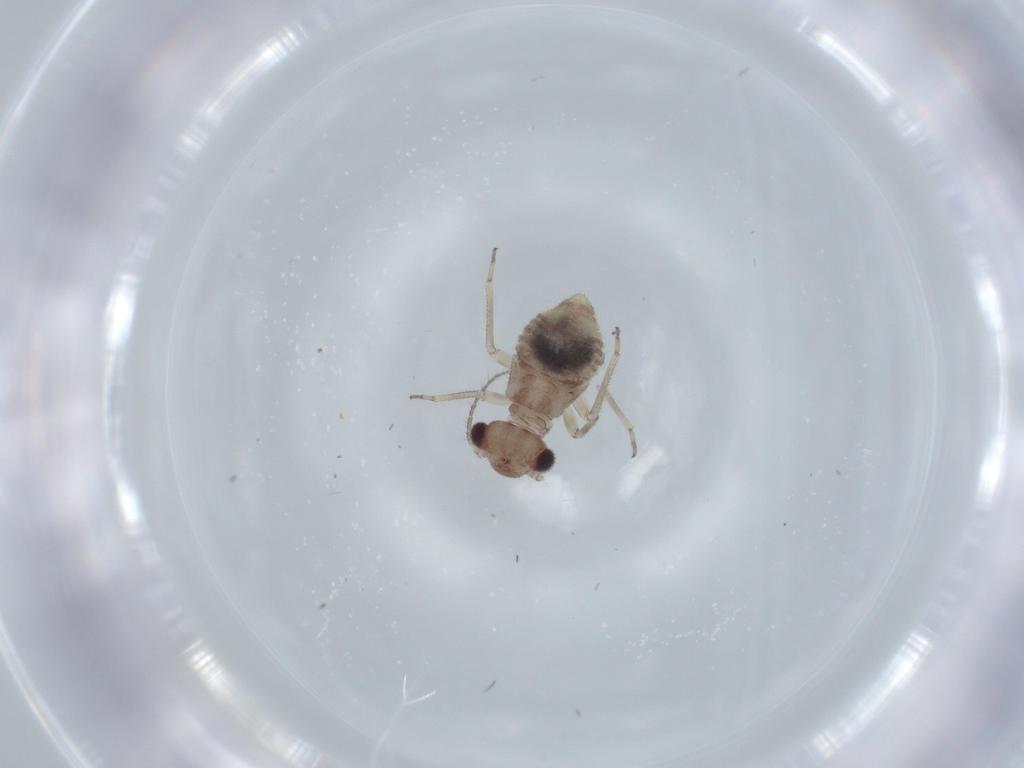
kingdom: Animalia
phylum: Arthropoda
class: Insecta
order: Psocodea
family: Psocidae
